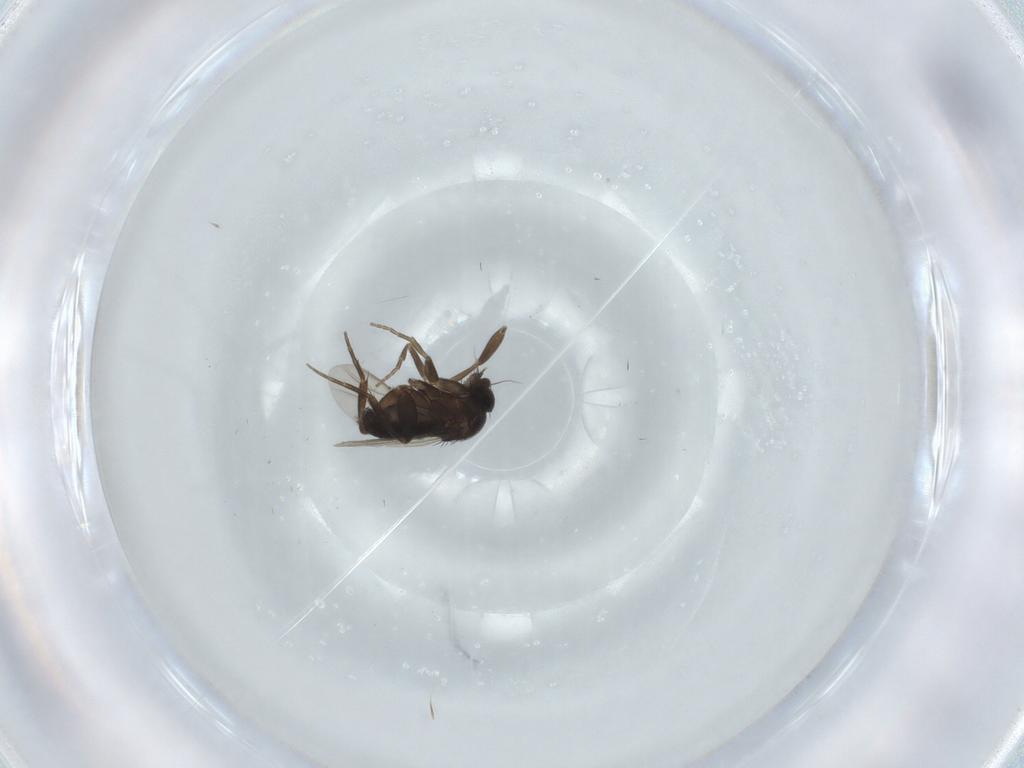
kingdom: Animalia
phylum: Arthropoda
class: Insecta
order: Diptera
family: Phoridae
